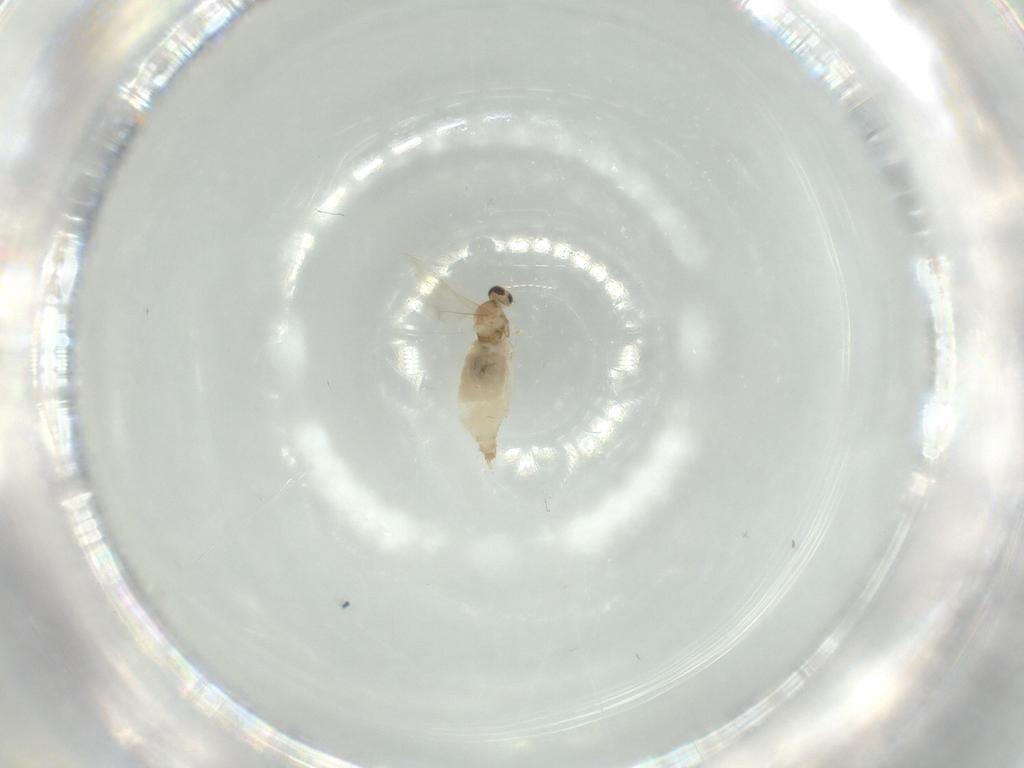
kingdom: Animalia
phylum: Arthropoda
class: Insecta
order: Diptera
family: Cecidomyiidae
